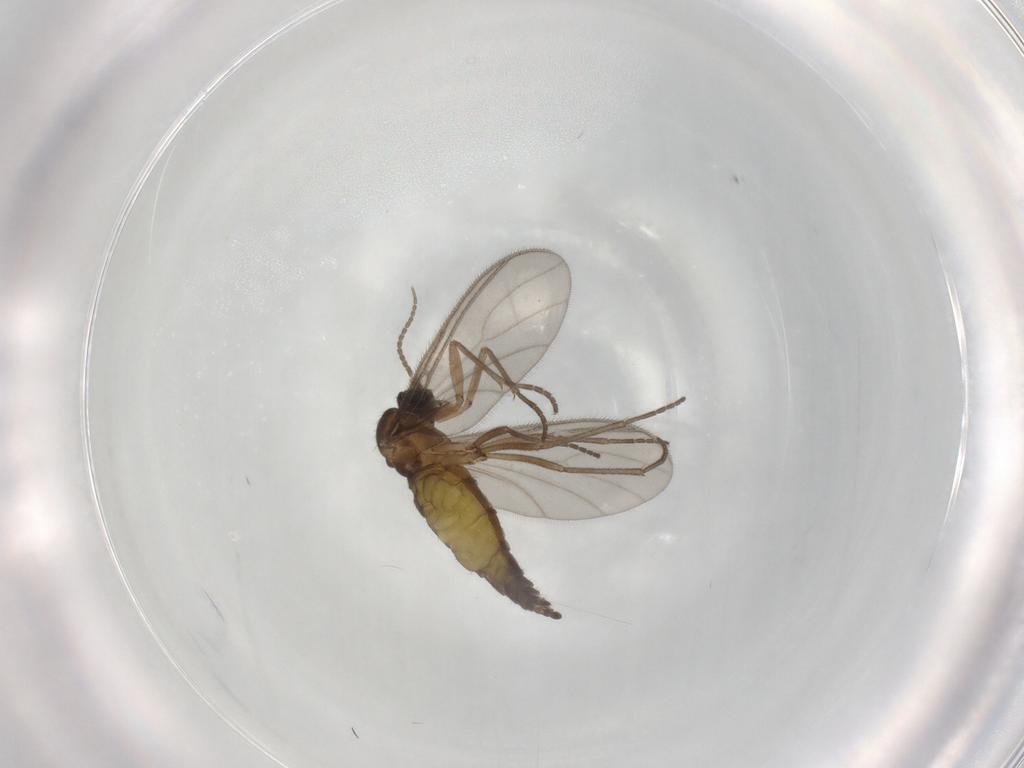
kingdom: Animalia
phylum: Arthropoda
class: Insecta
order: Diptera
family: Sciaridae
